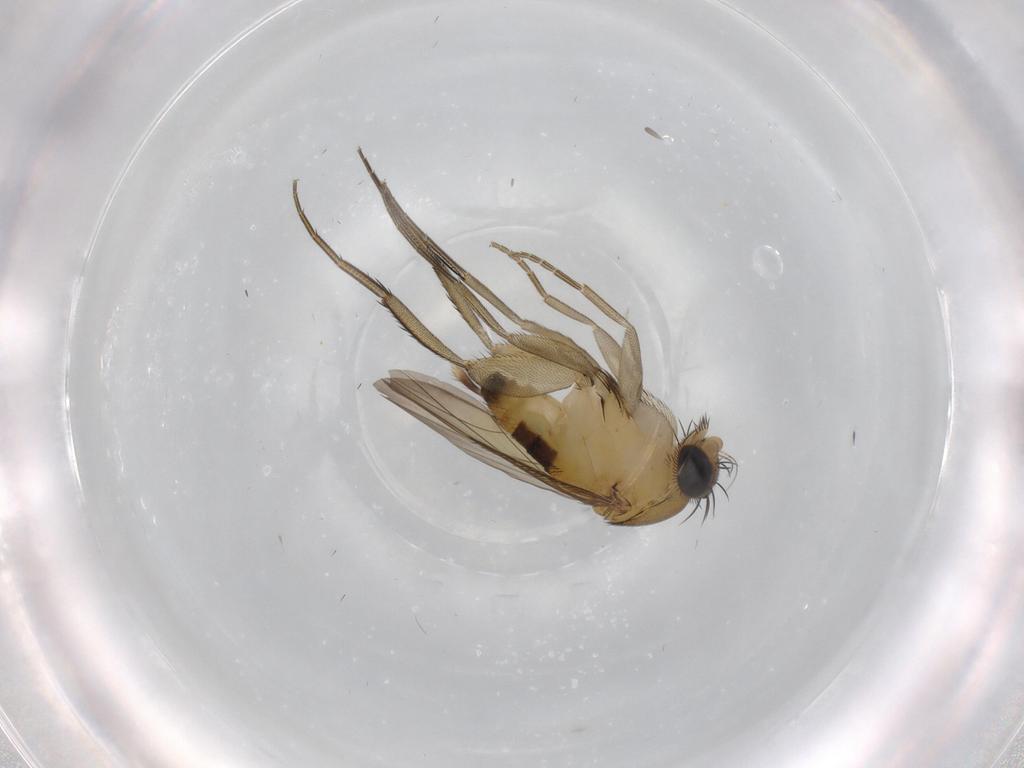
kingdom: Animalia
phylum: Arthropoda
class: Insecta
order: Diptera
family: Phoridae
